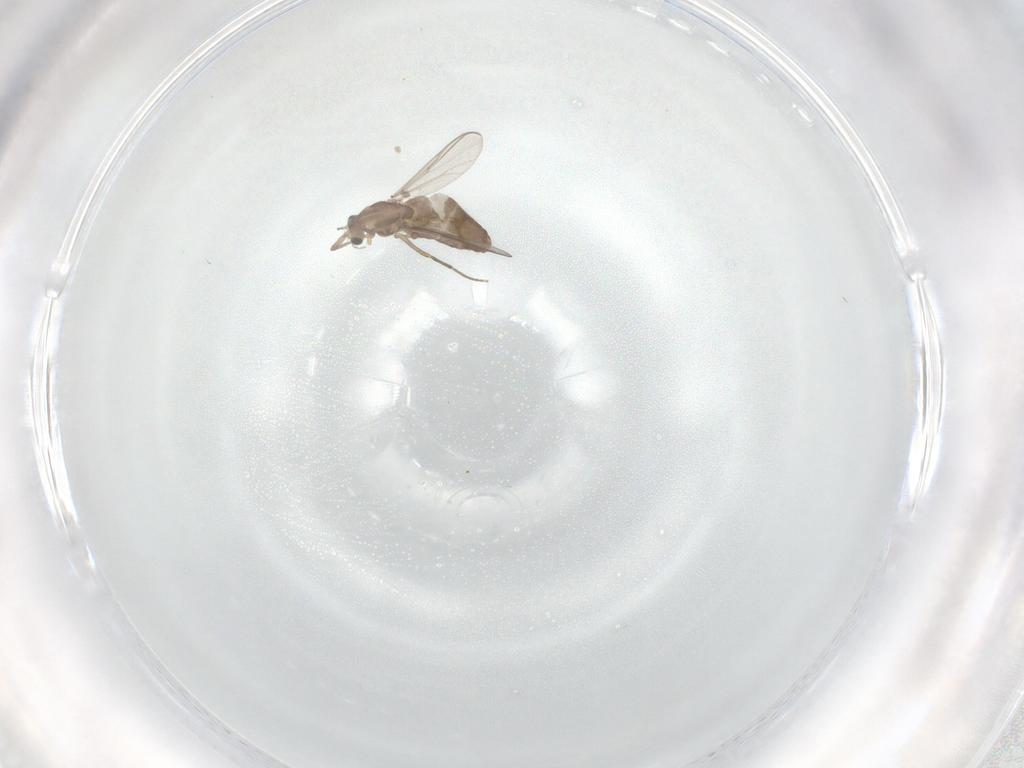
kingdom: Animalia
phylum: Arthropoda
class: Insecta
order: Diptera
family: Chironomidae
